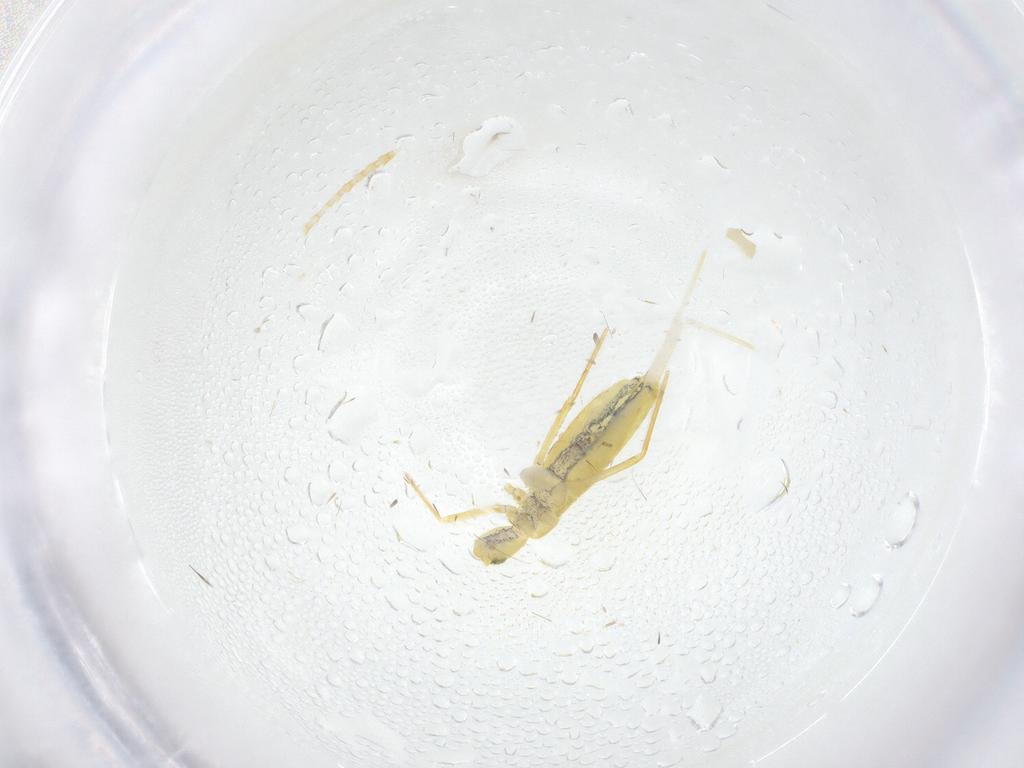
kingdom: Animalia
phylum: Arthropoda
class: Collembola
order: Entomobryomorpha
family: Paronellidae
